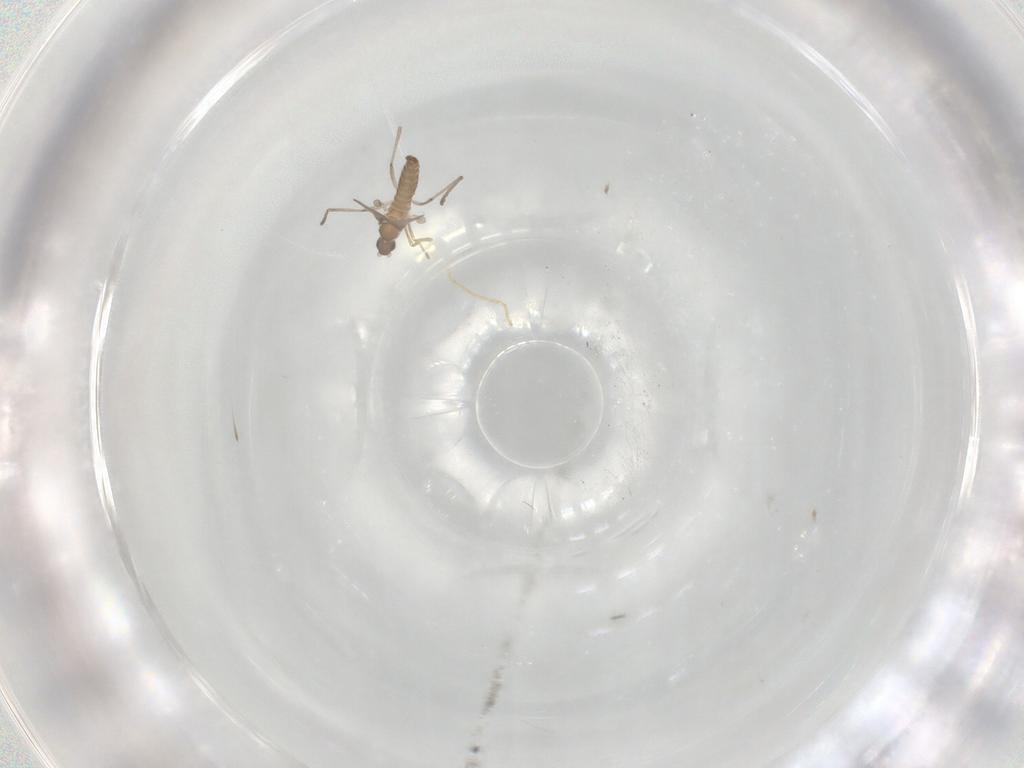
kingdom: Animalia
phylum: Arthropoda
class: Insecta
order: Diptera
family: Cecidomyiidae
